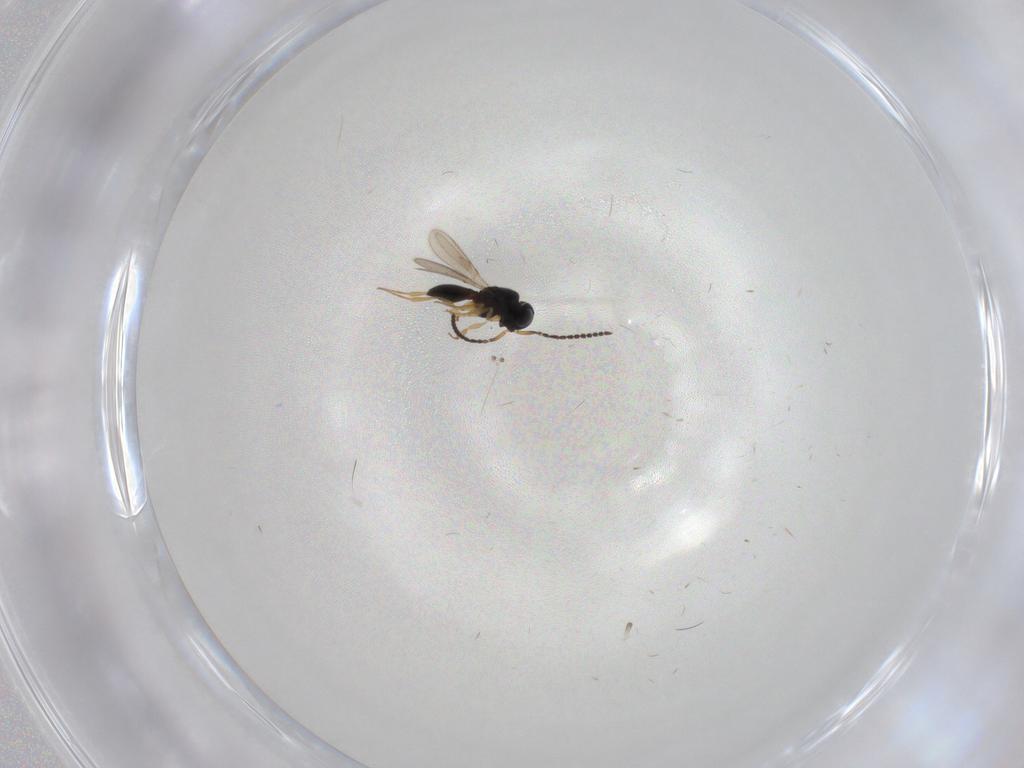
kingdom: Animalia
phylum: Arthropoda
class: Insecta
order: Hymenoptera
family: Scelionidae
